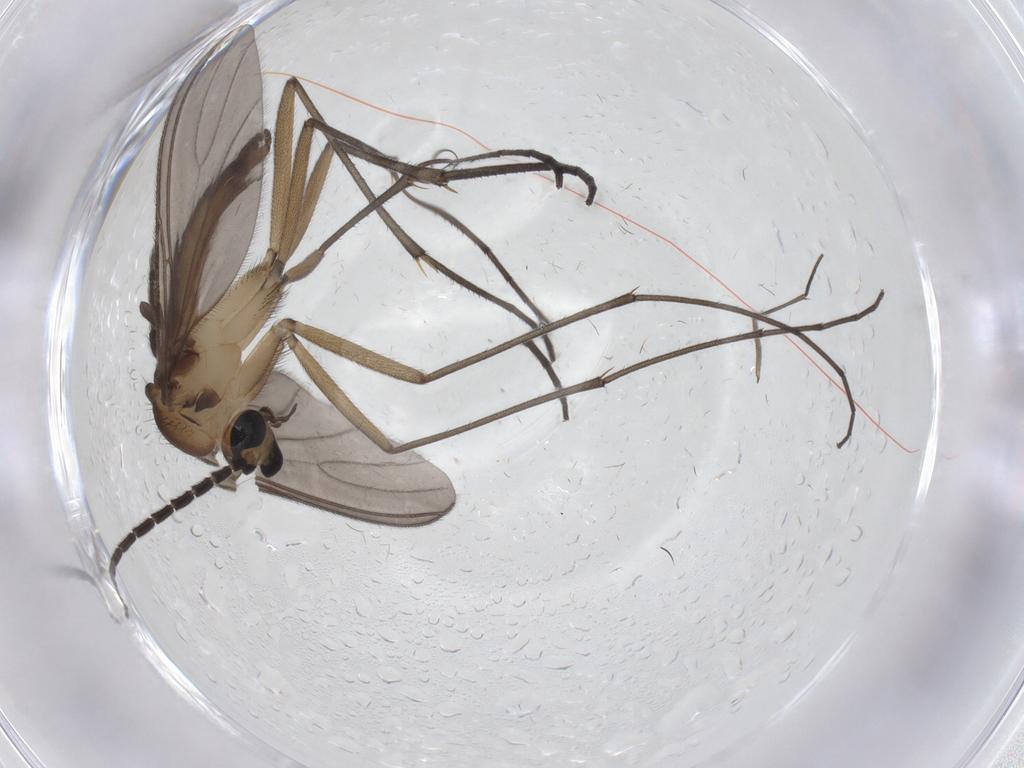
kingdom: Animalia
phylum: Arthropoda
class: Insecta
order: Diptera
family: Sciaridae
